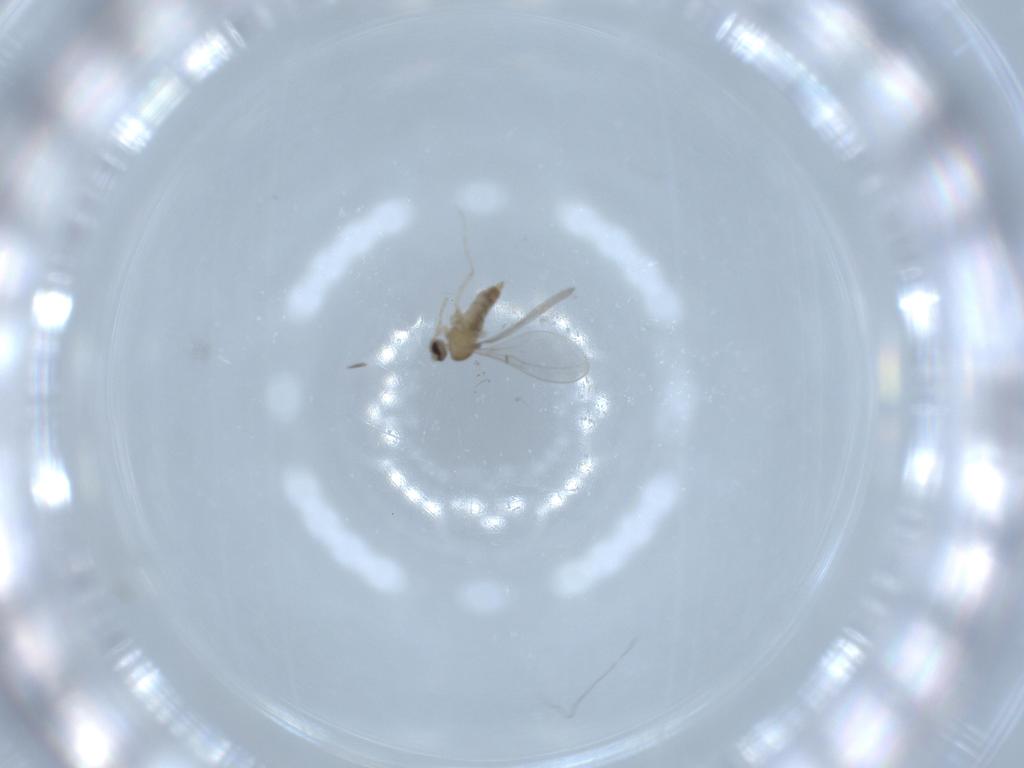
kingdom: Animalia
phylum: Arthropoda
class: Insecta
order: Diptera
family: Cecidomyiidae
